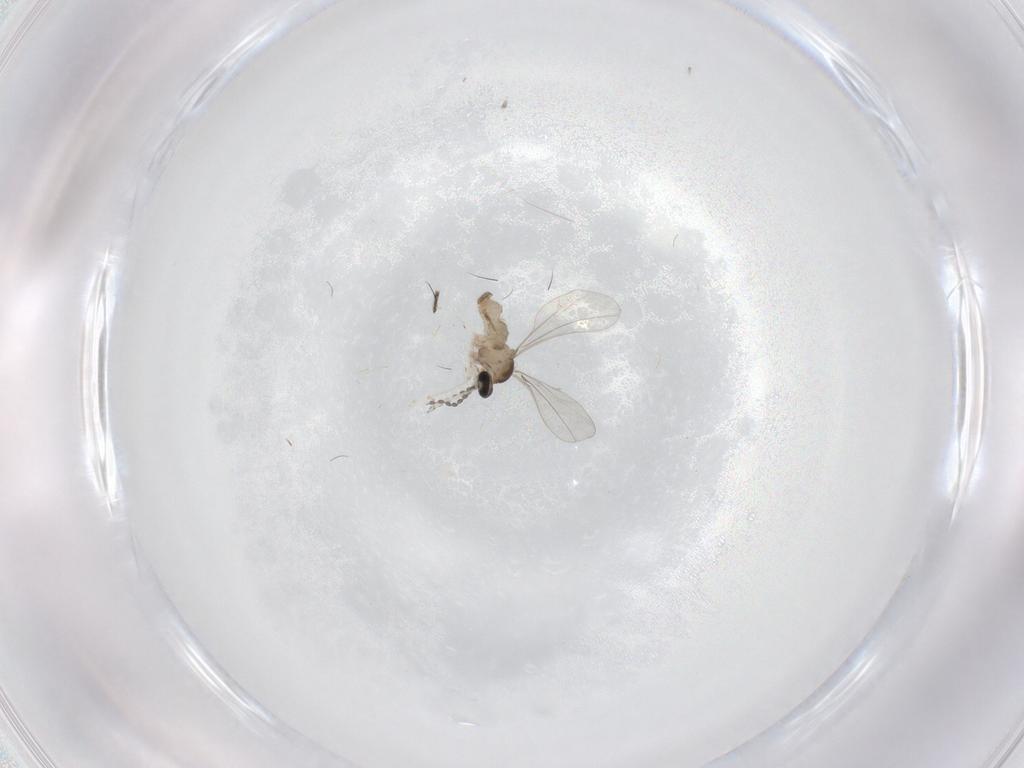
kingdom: Animalia
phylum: Arthropoda
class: Insecta
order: Diptera
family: Cecidomyiidae
